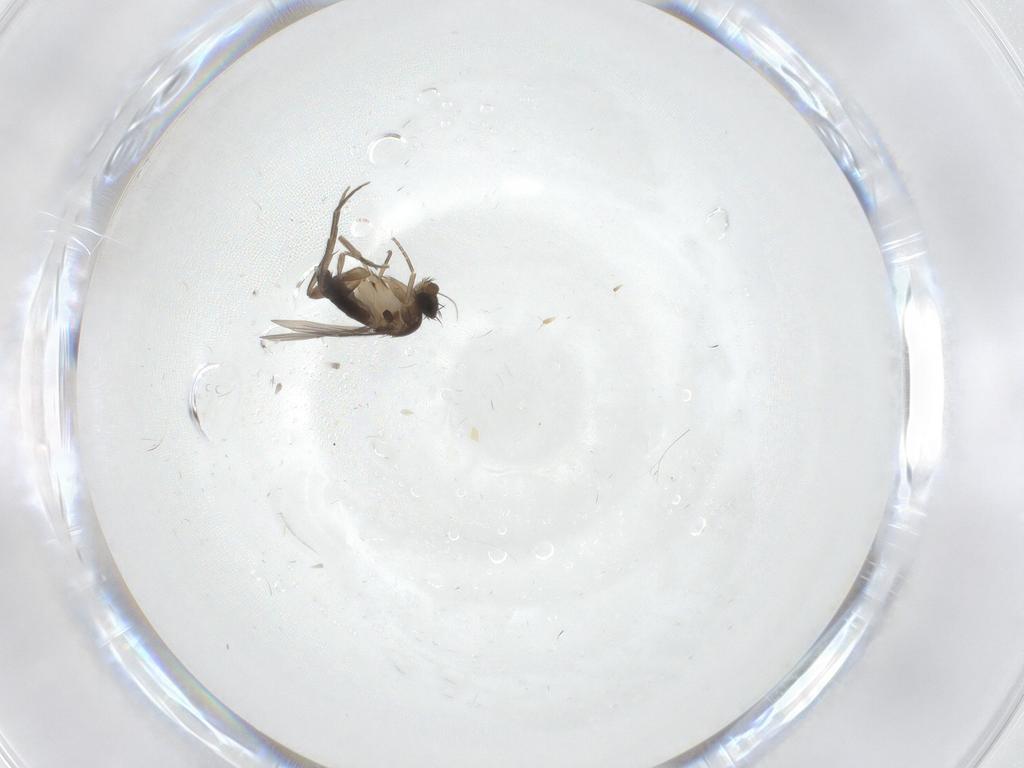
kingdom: Animalia
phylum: Arthropoda
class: Insecta
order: Diptera
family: Phoridae
